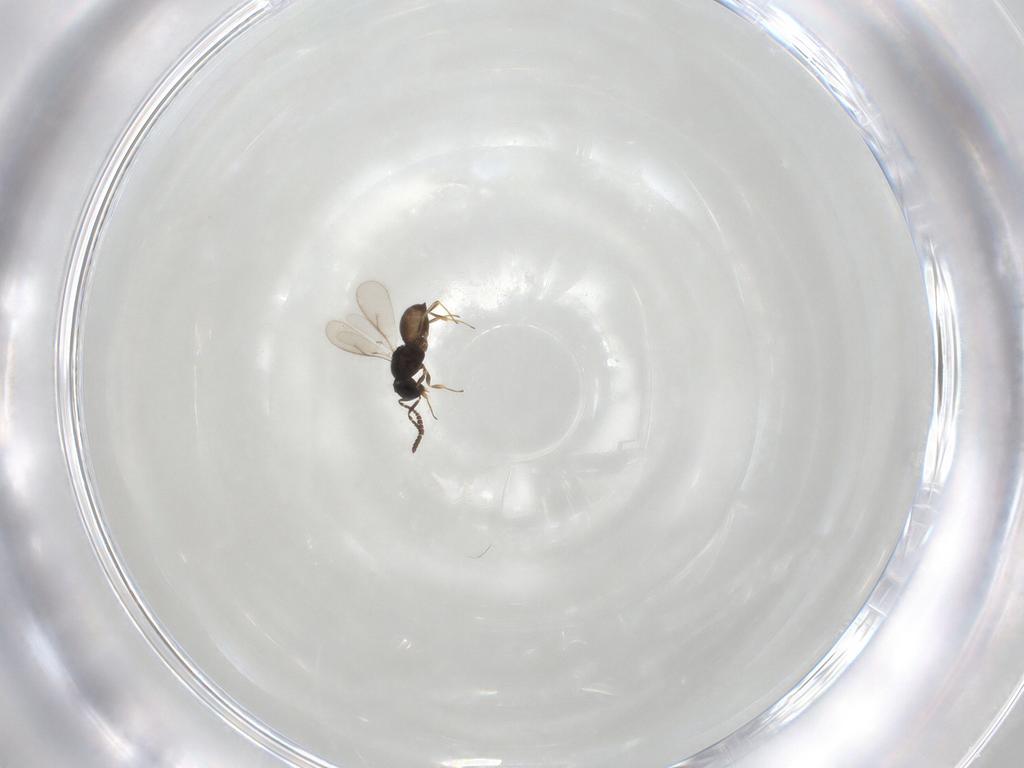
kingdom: Animalia
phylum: Arthropoda
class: Insecta
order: Hymenoptera
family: Scelionidae
